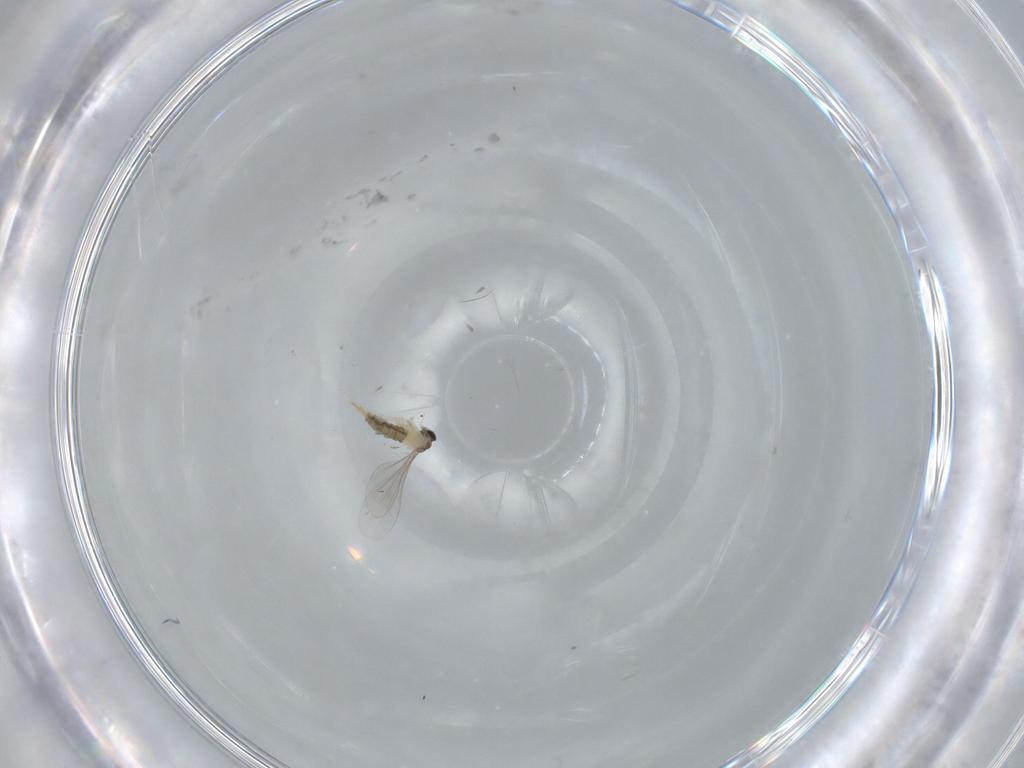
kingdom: Animalia
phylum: Arthropoda
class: Insecta
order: Diptera
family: Milichiidae
